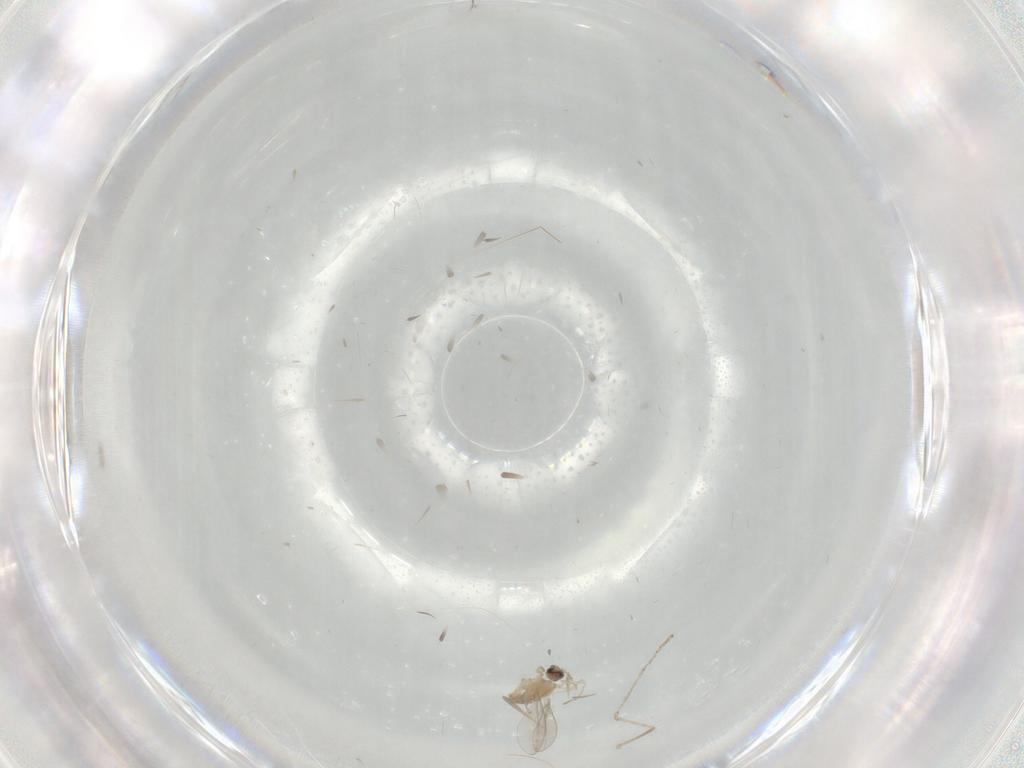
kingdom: Animalia
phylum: Arthropoda
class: Insecta
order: Diptera
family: Cecidomyiidae
